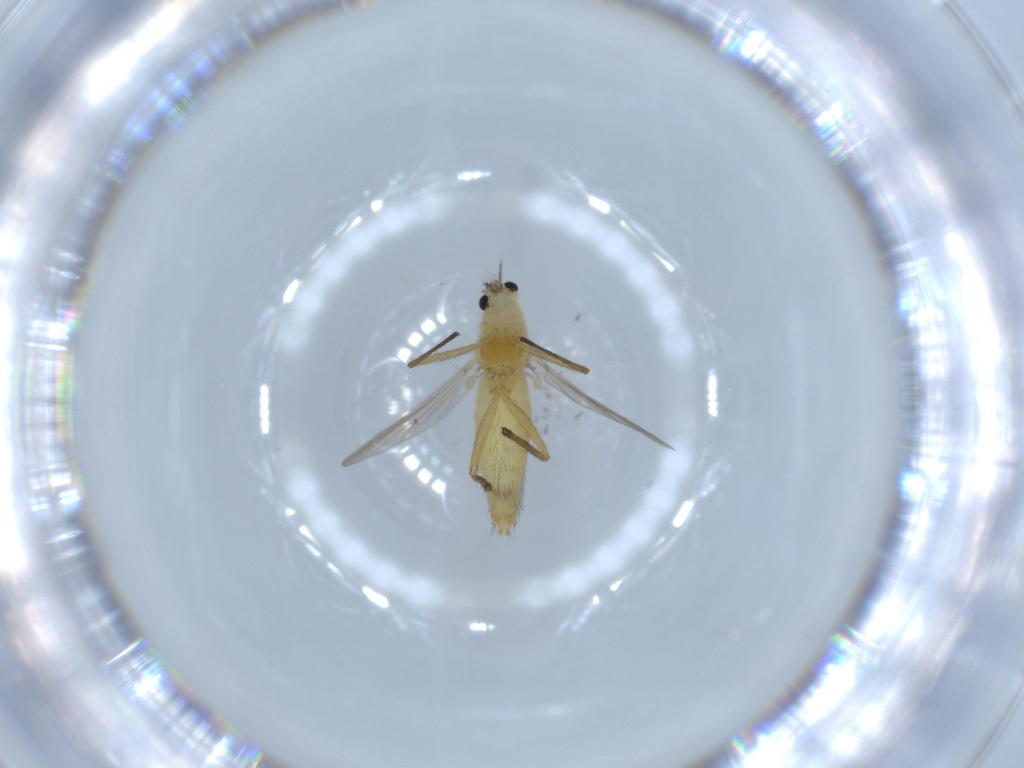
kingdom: Animalia
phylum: Arthropoda
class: Insecta
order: Diptera
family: Chironomidae
